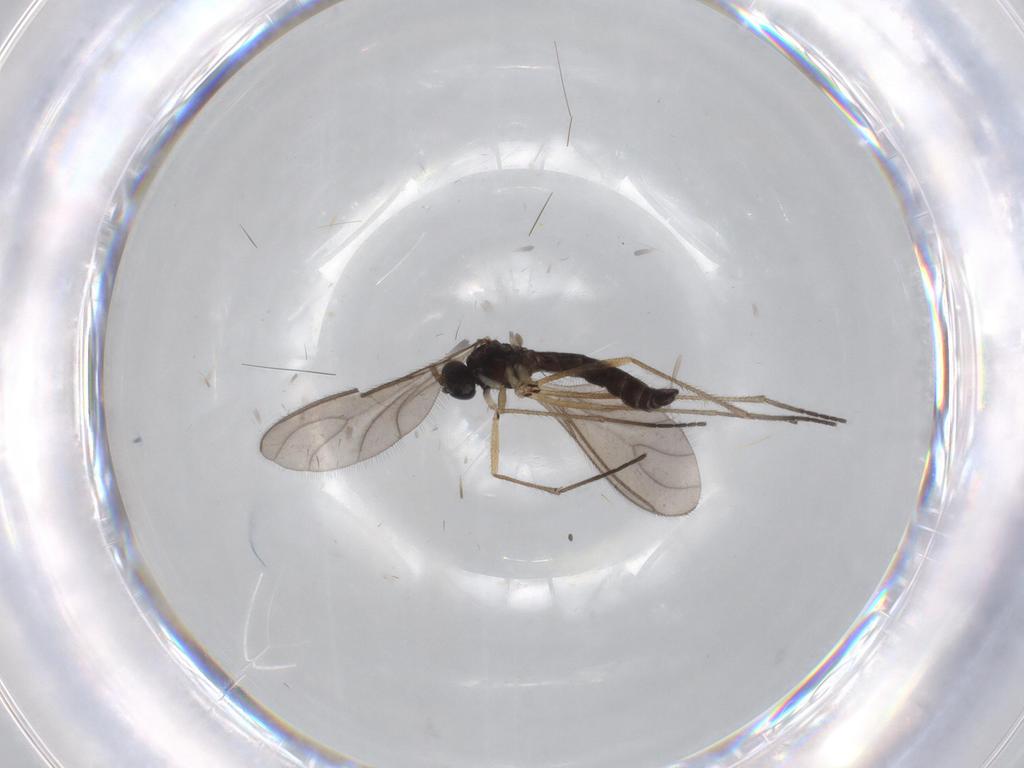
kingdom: Animalia
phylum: Arthropoda
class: Insecta
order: Diptera
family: Sciaridae
